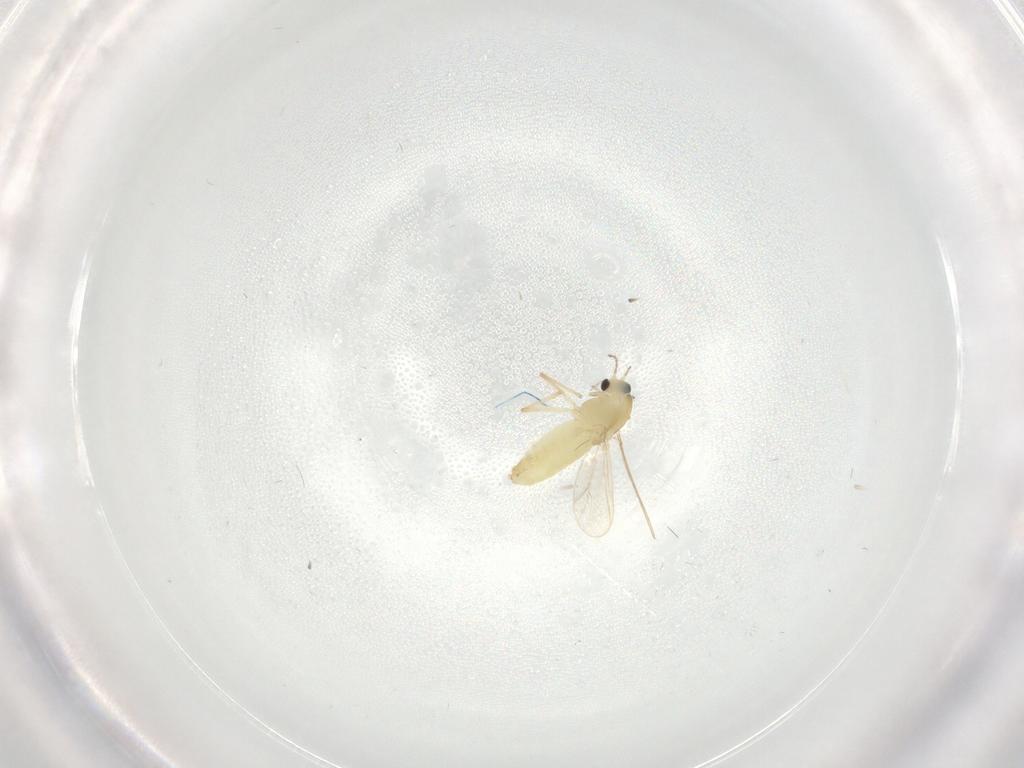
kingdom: Animalia
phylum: Arthropoda
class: Insecta
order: Diptera
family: Chironomidae
